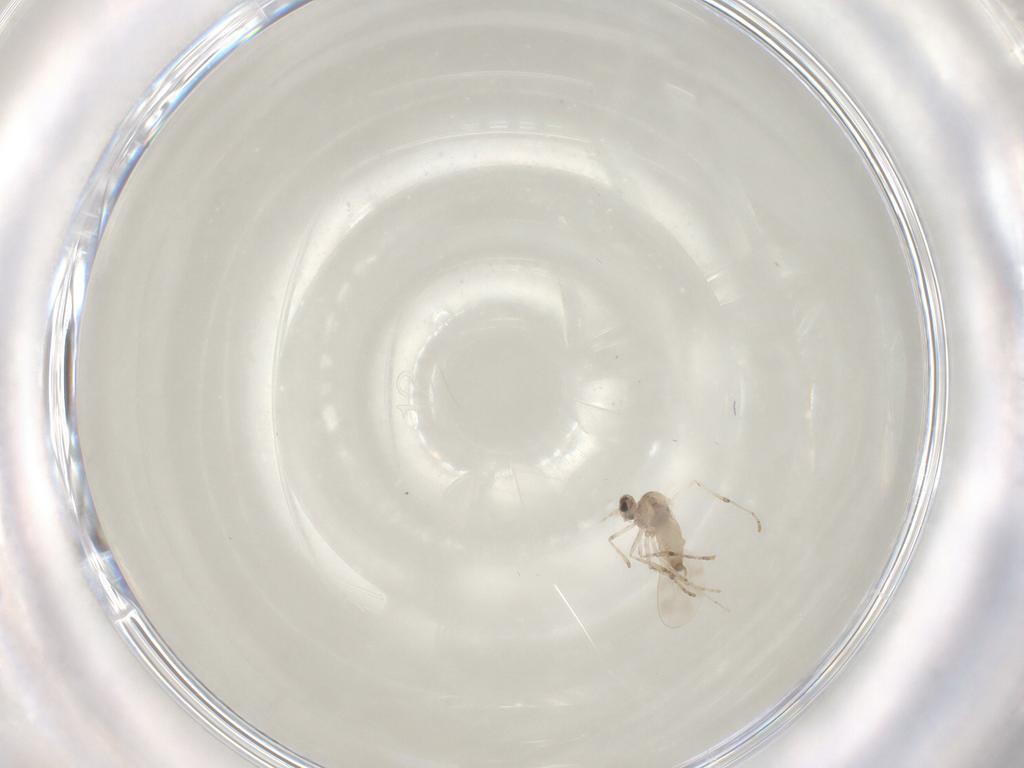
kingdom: Animalia
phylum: Arthropoda
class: Insecta
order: Diptera
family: Cecidomyiidae
